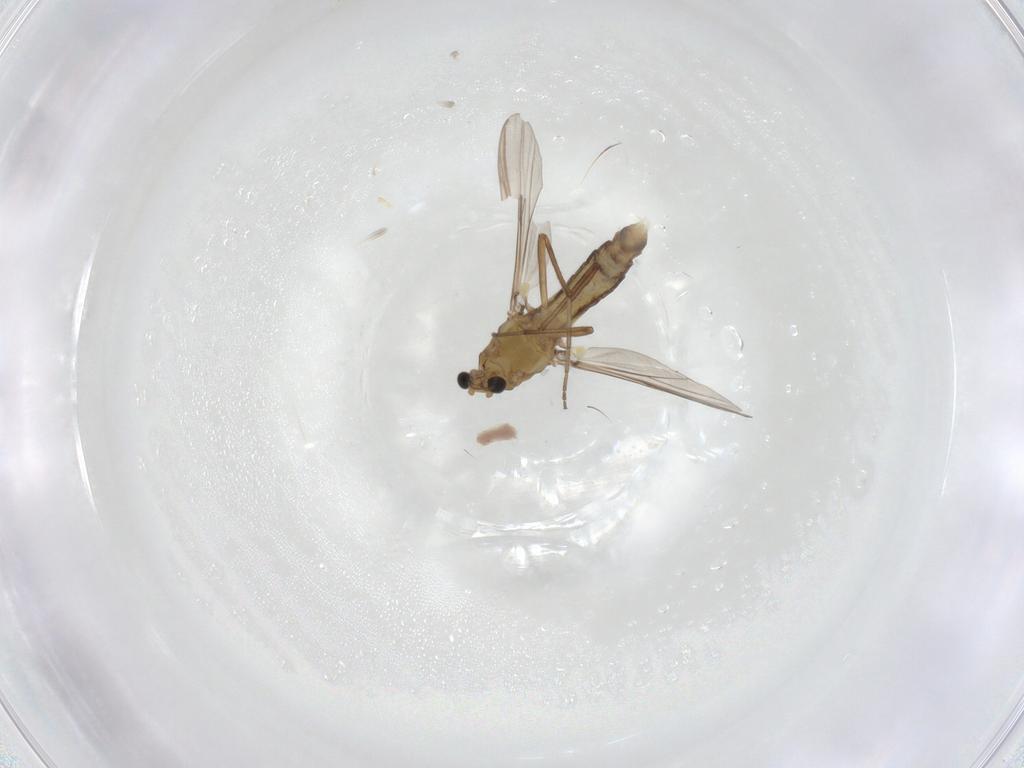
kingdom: Animalia
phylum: Arthropoda
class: Insecta
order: Diptera
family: Chironomidae
